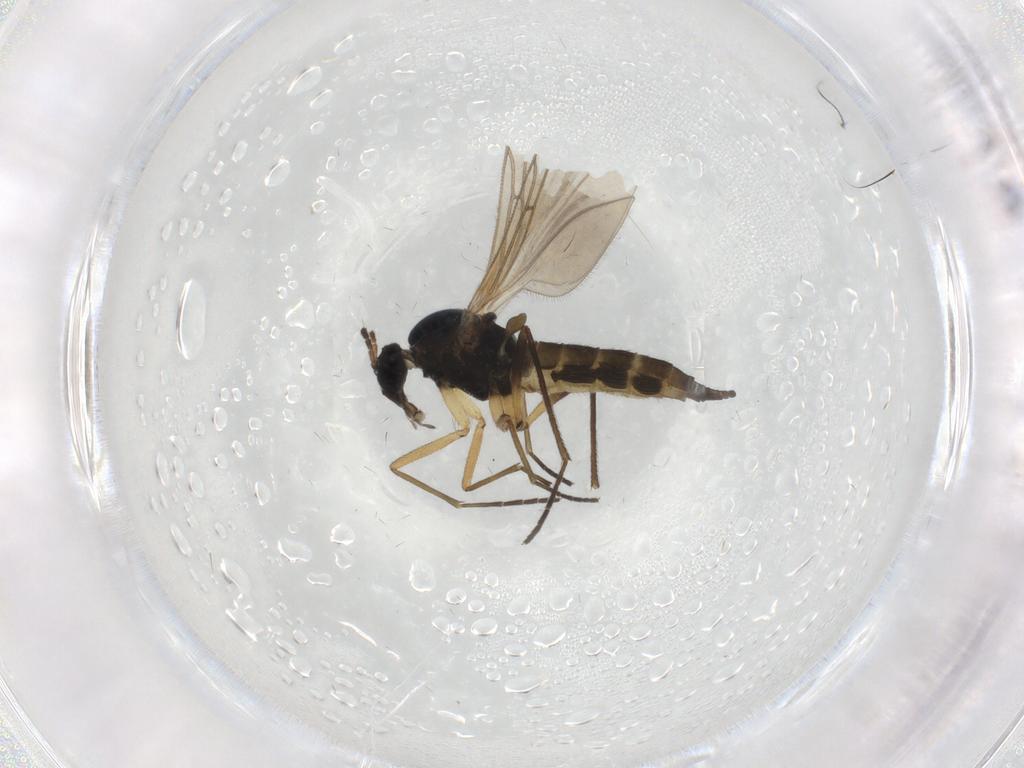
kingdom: Animalia
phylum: Arthropoda
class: Insecta
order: Diptera
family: Sciaridae
